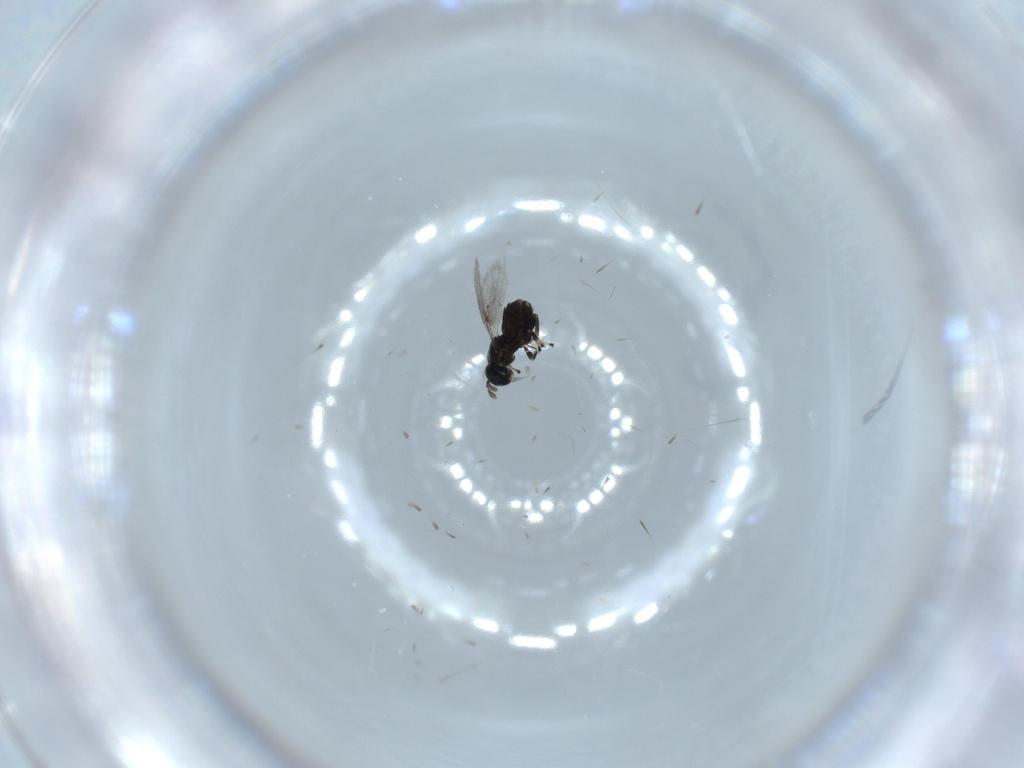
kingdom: Animalia
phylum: Arthropoda
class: Insecta
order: Hymenoptera
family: Eulophidae
